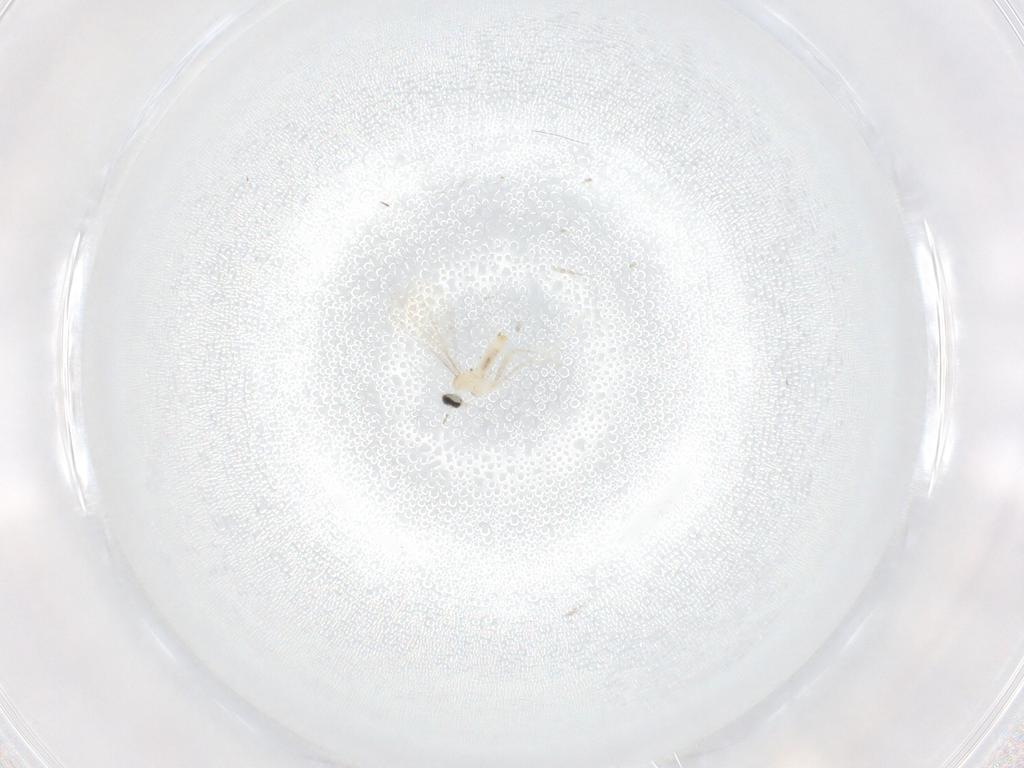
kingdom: Animalia
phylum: Arthropoda
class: Insecta
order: Diptera
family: Cecidomyiidae
